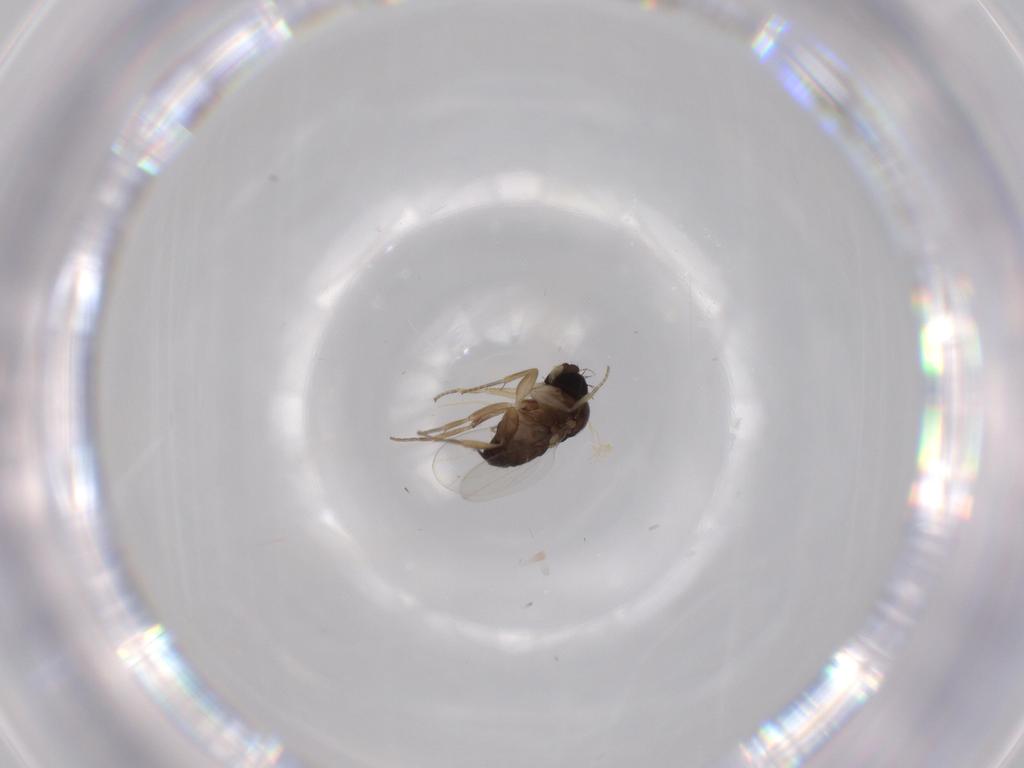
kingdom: Animalia
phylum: Arthropoda
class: Insecta
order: Diptera
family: Phoridae
